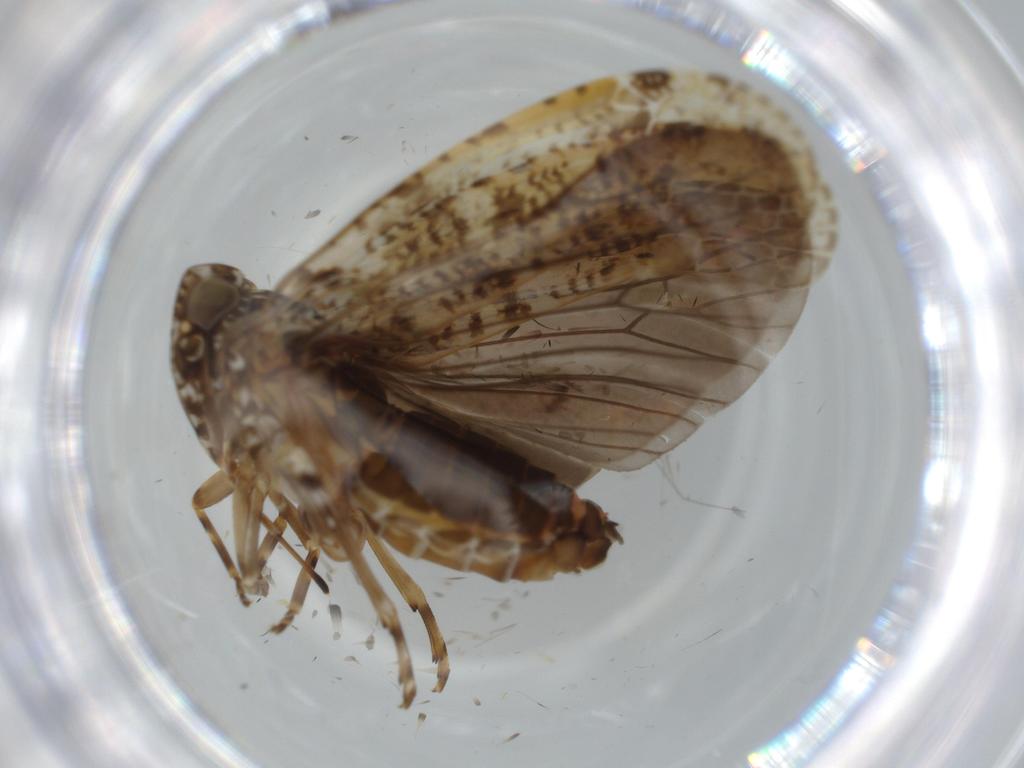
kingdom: Animalia
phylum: Arthropoda
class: Insecta
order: Hemiptera
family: Achilidae
